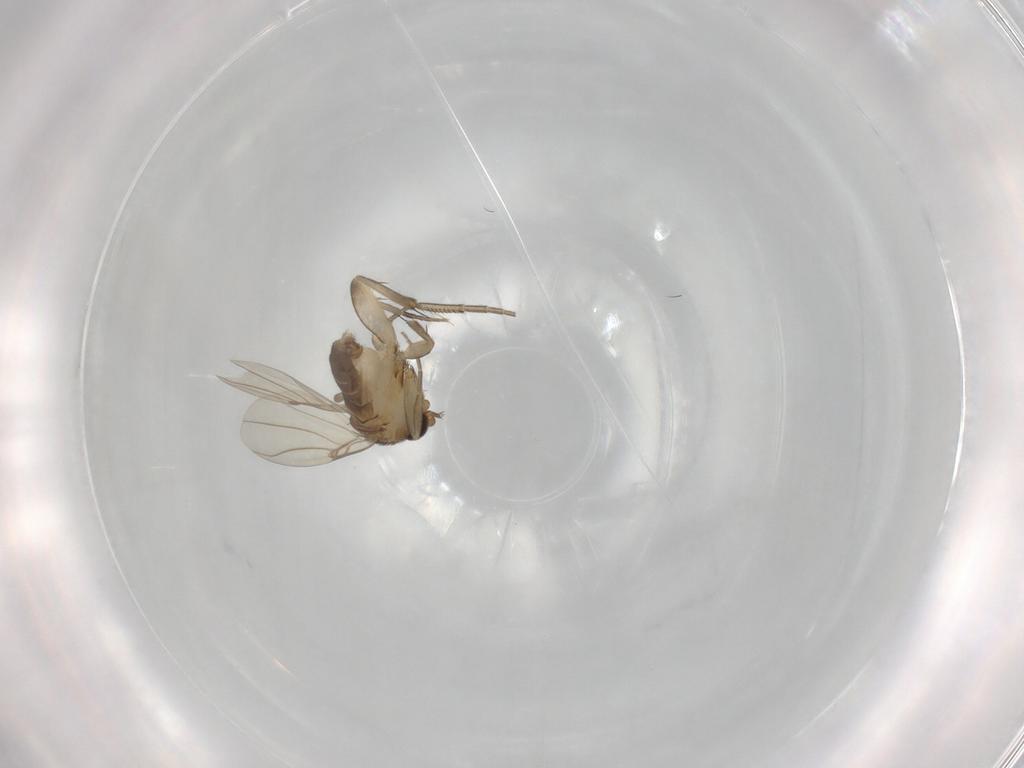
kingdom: Animalia
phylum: Arthropoda
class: Insecta
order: Diptera
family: Phoridae
